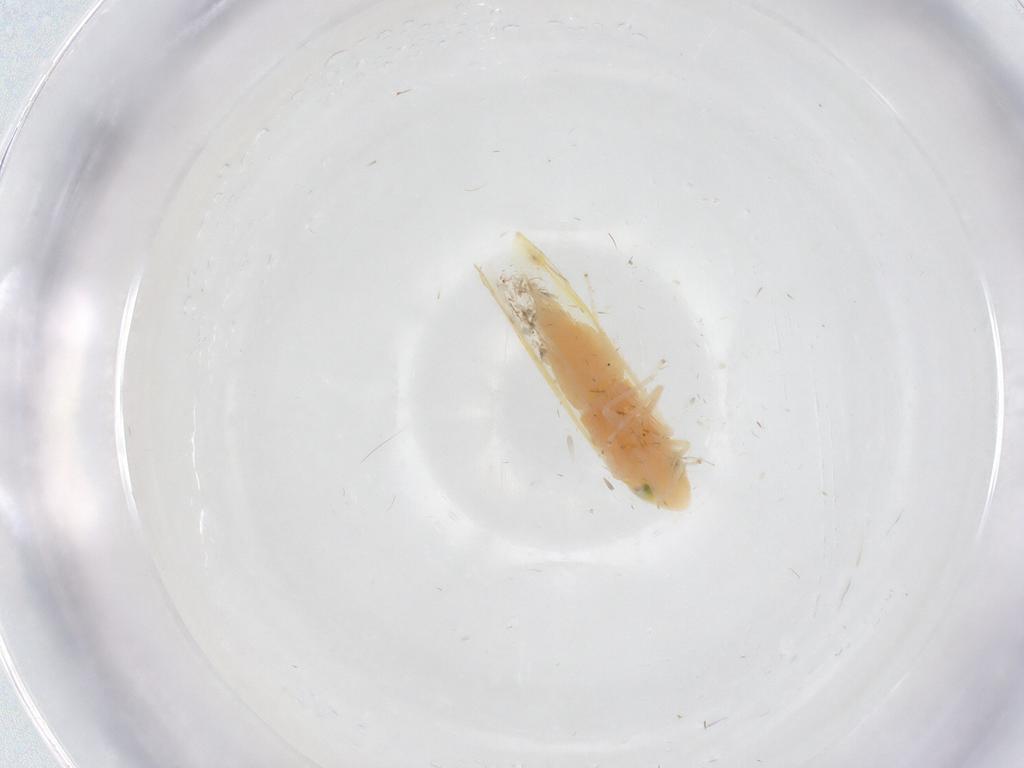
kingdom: Animalia
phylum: Arthropoda
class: Insecta
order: Hemiptera
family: Cicadellidae
